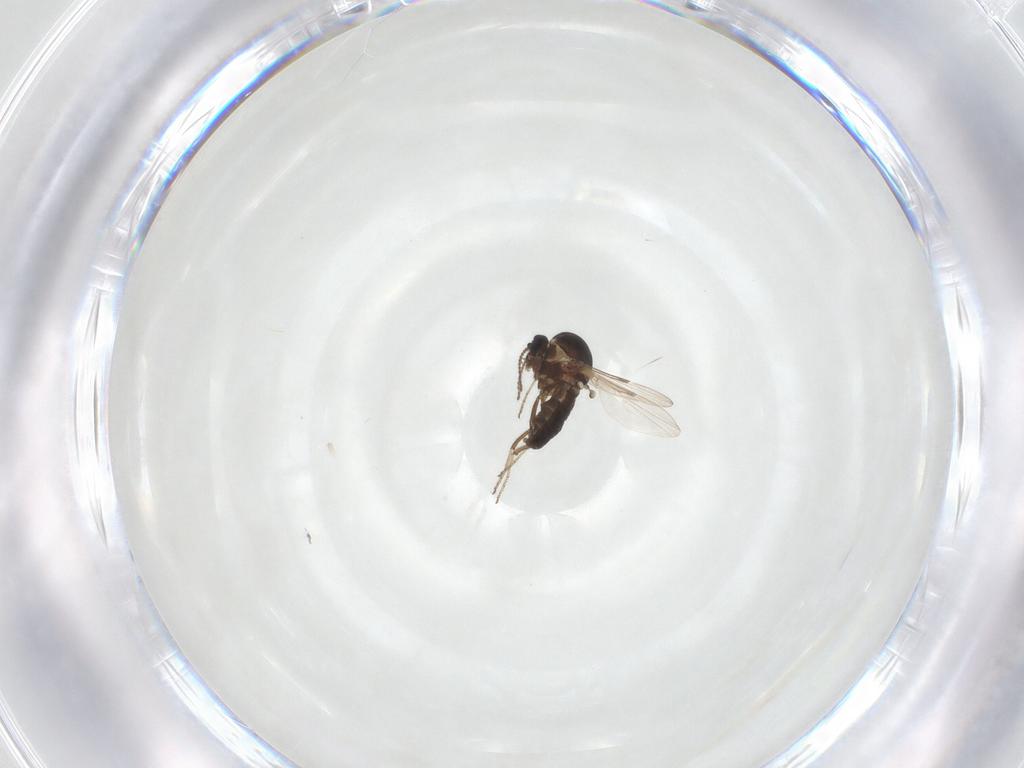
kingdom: Animalia
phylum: Arthropoda
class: Insecta
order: Diptera
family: Ceratopogonidae
